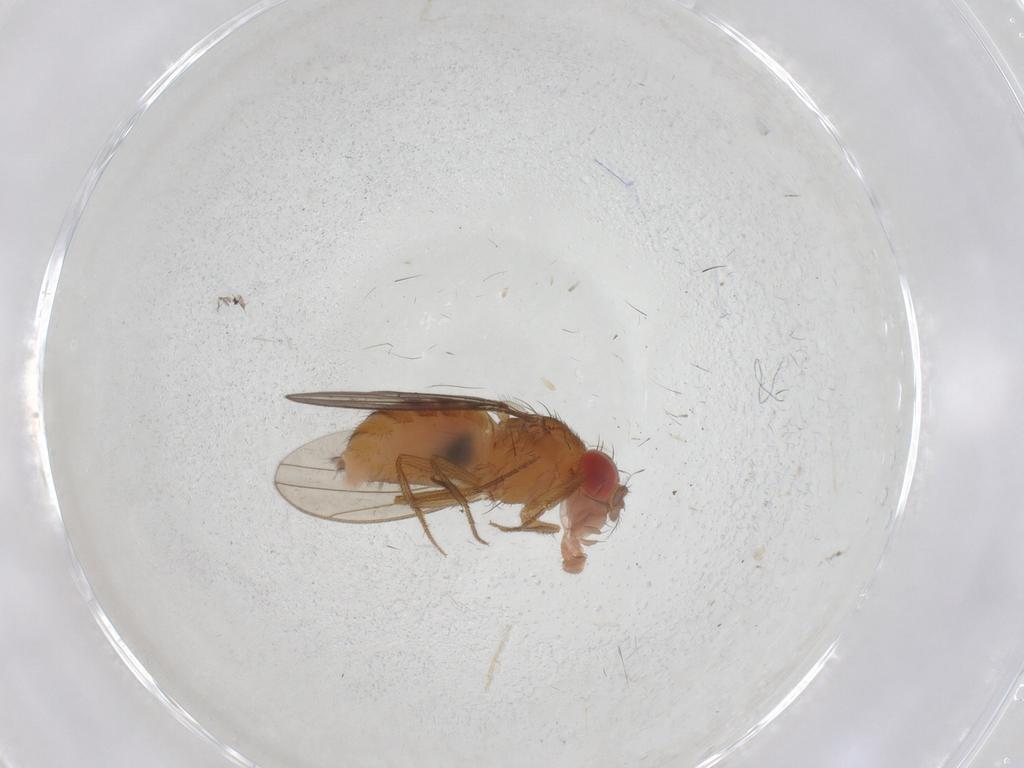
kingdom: Animalia
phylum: Arthropoda
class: Insecta
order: Diptera
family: Drosophilidae
